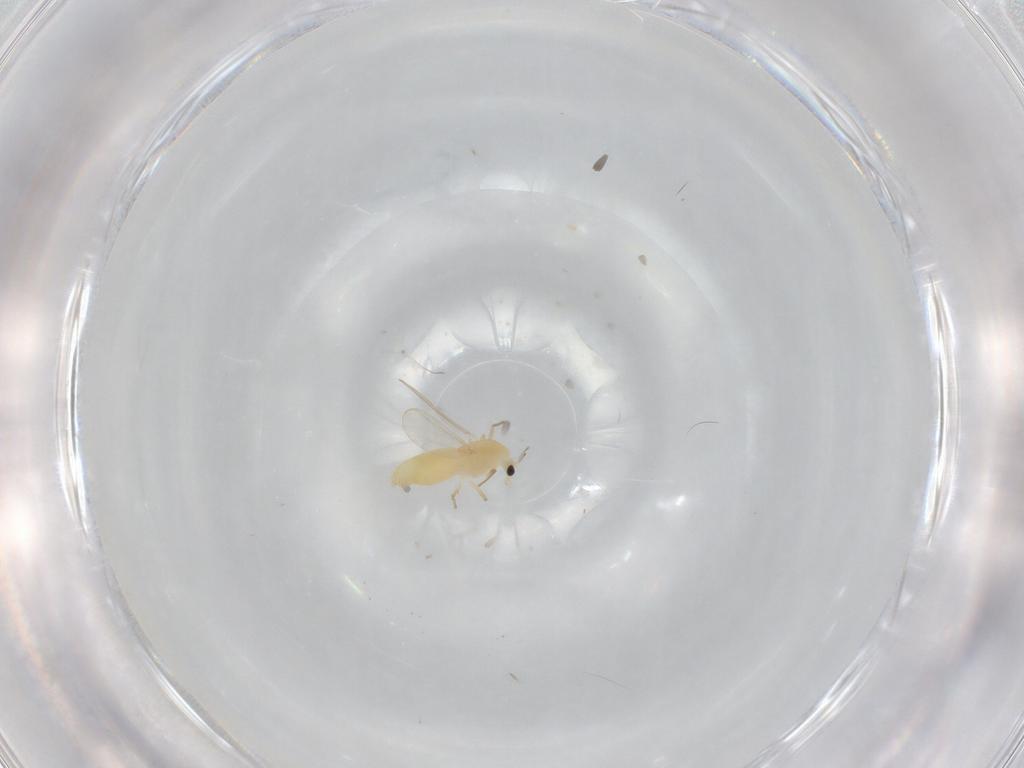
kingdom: Animalia
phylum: Arthropoda
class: Insecta
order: Diptera
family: Chironomidae
